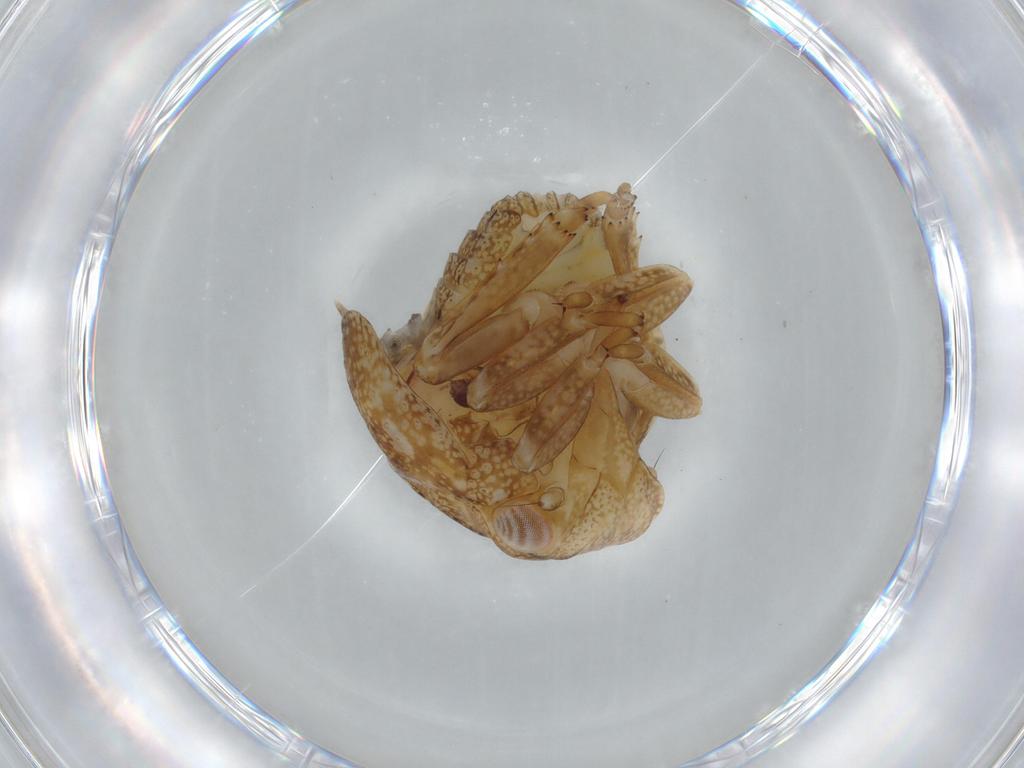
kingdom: Animalia
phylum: Arthropoda
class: Insecta
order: Hemiptera
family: Acanaloniidae
